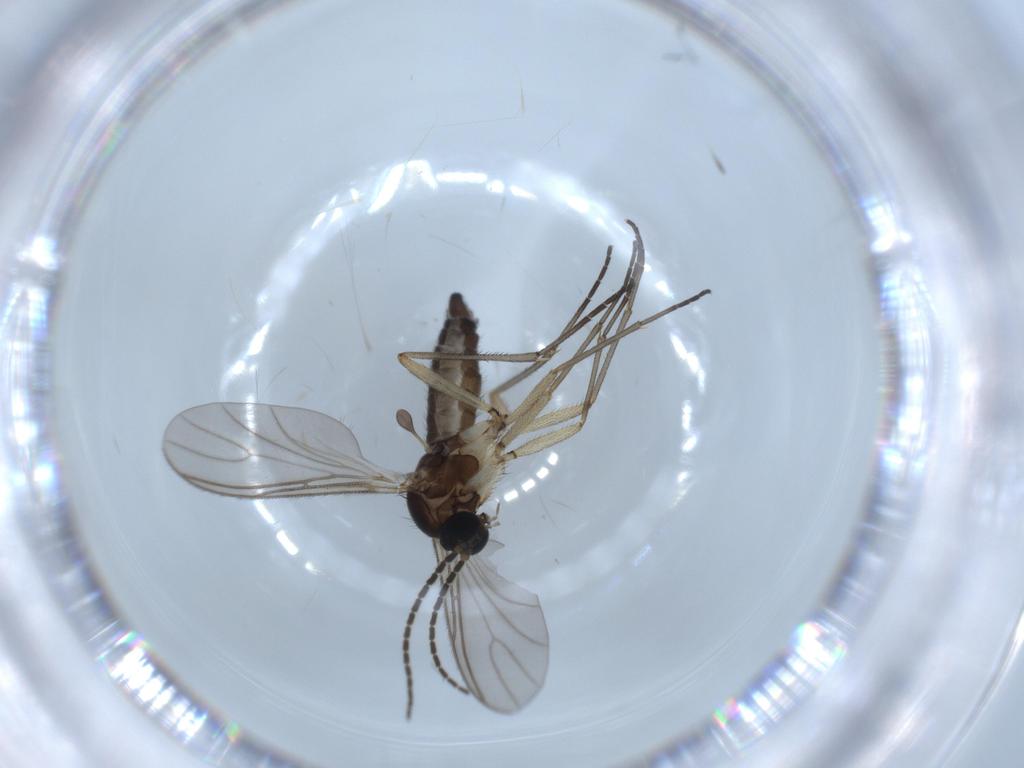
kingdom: Animalia
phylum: Arthropoda
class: Insecta
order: Diptera
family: Sciaridae
